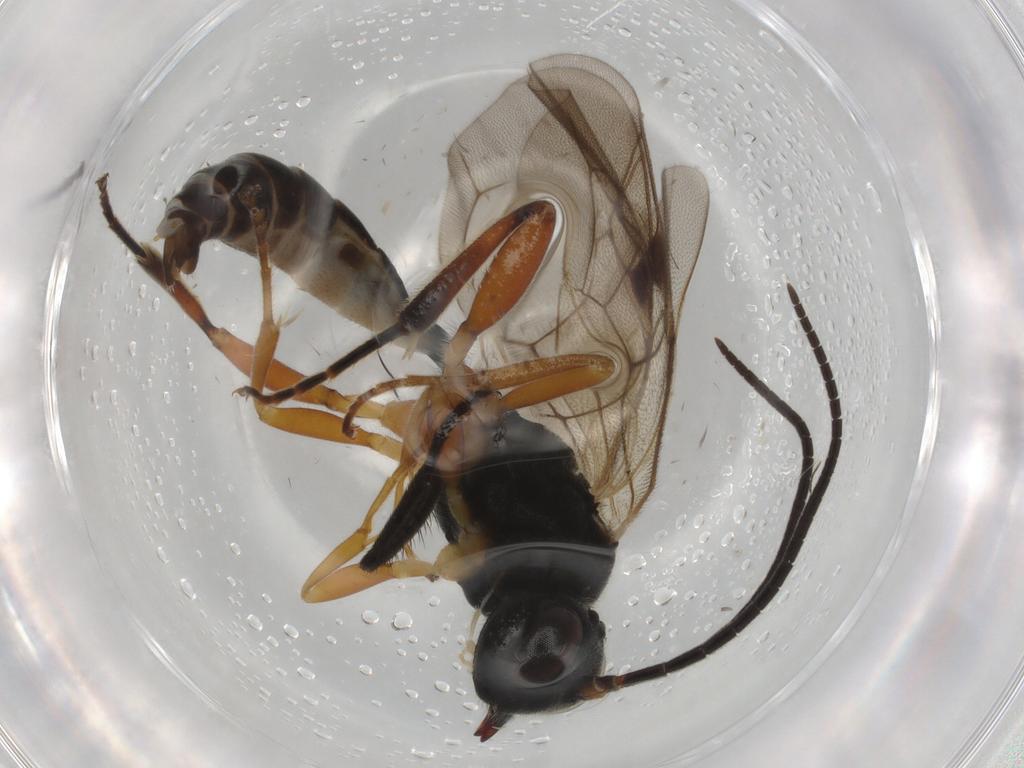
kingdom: Animalia
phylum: Arthropoda
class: Insecta
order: Hymenoptera
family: Ichneumonidae
